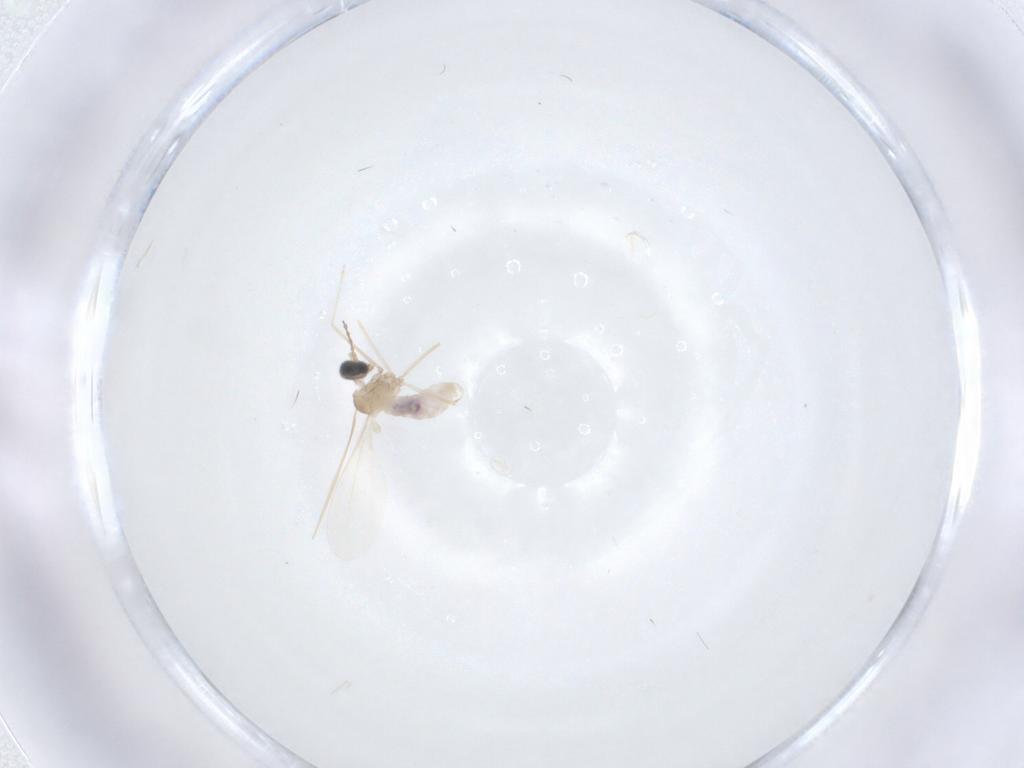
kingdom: Animalia
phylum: Arthropoda
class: Insecta
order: Diptera
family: Cecidomyiidae
